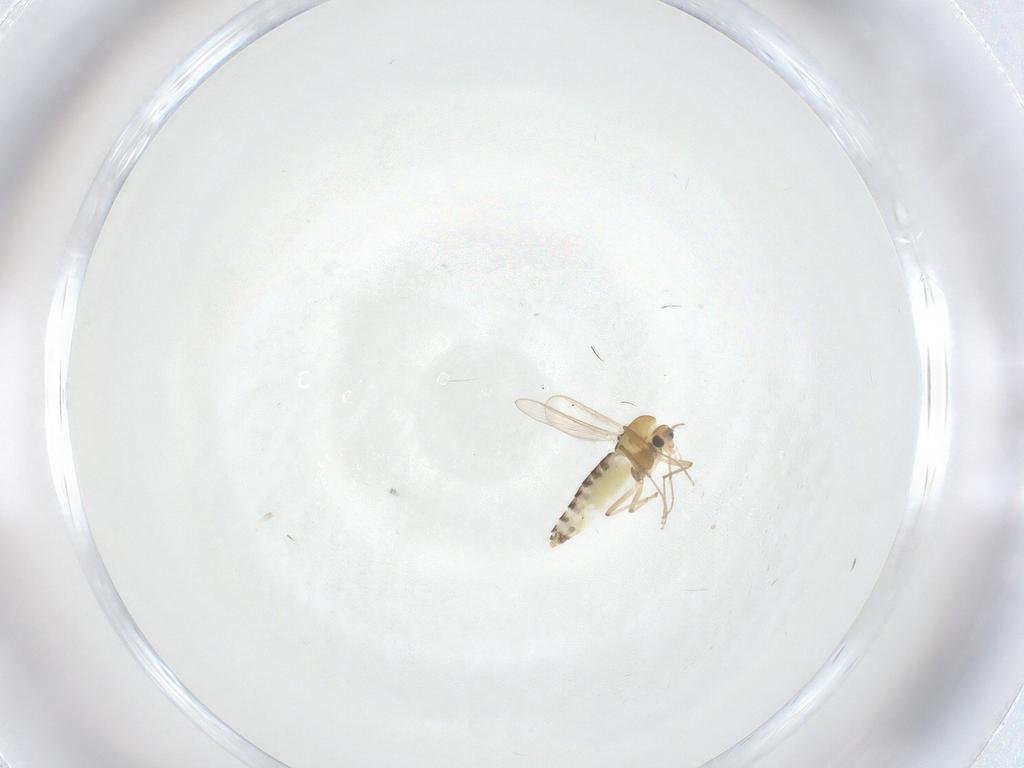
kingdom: Animalia
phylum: Arthropoda
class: Insecta
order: Diptera
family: Chironomidae
